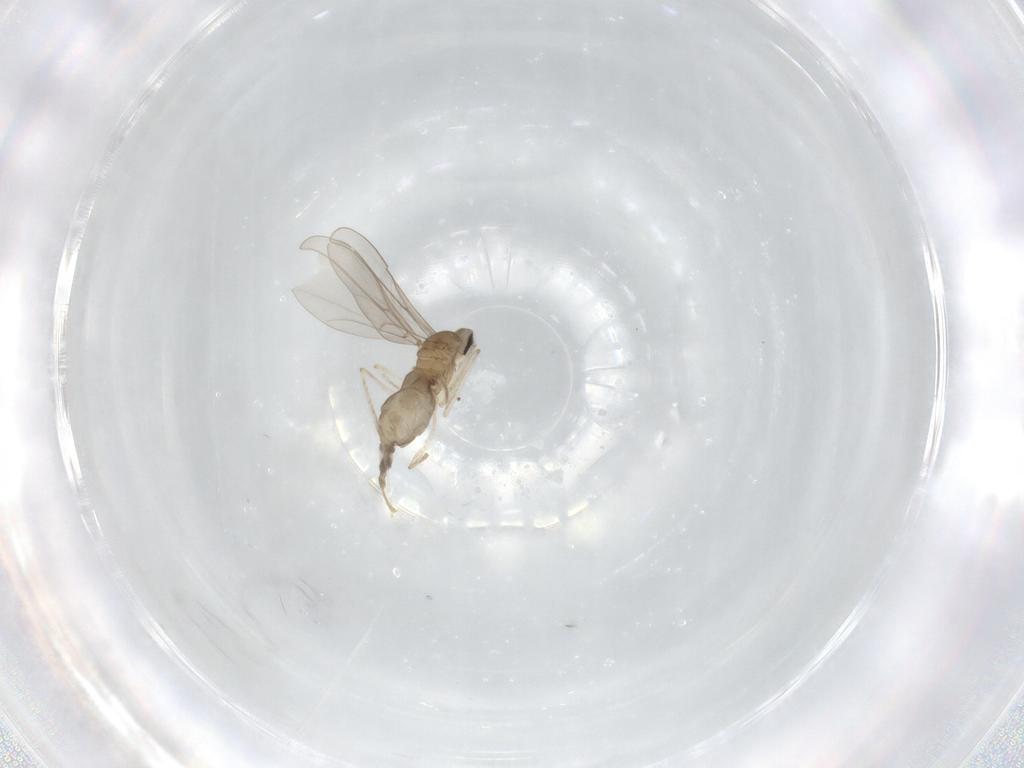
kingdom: Animalia
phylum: Arthropoda
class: Insecta
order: Diptera
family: Cecidomyiidae
